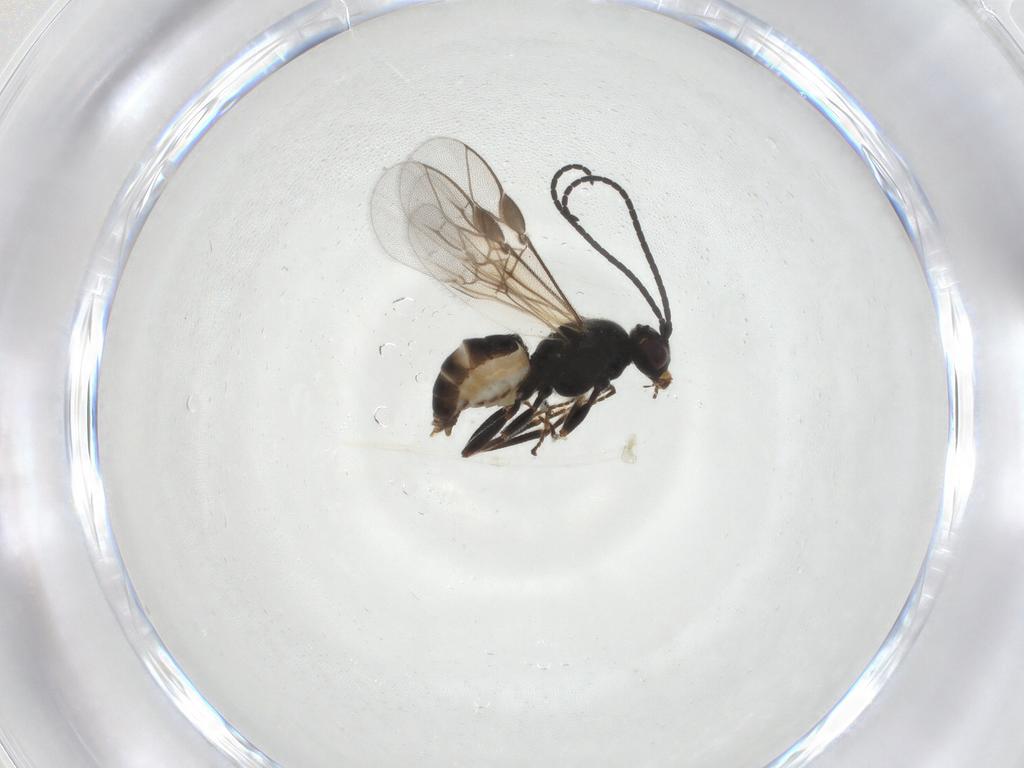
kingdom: Animalia
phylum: Arthropoda
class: Insecta
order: Hymenoptera
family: Braconidae
